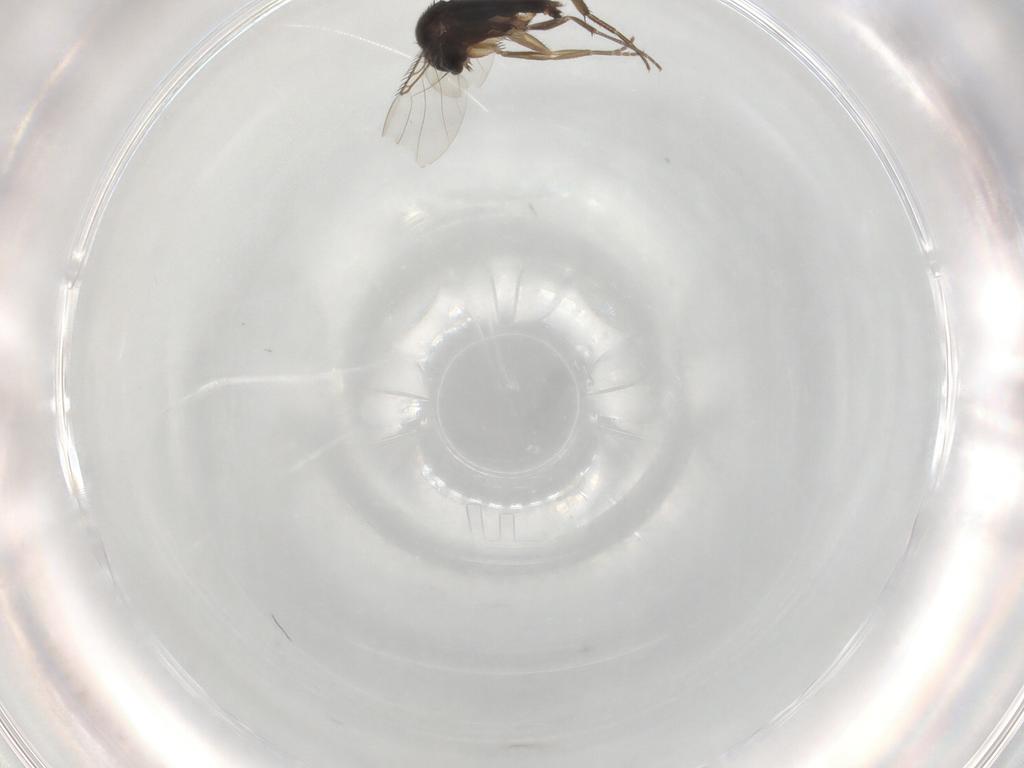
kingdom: Animalia
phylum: Arthropoda
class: Insecta
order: Diptera
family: Phoridae
